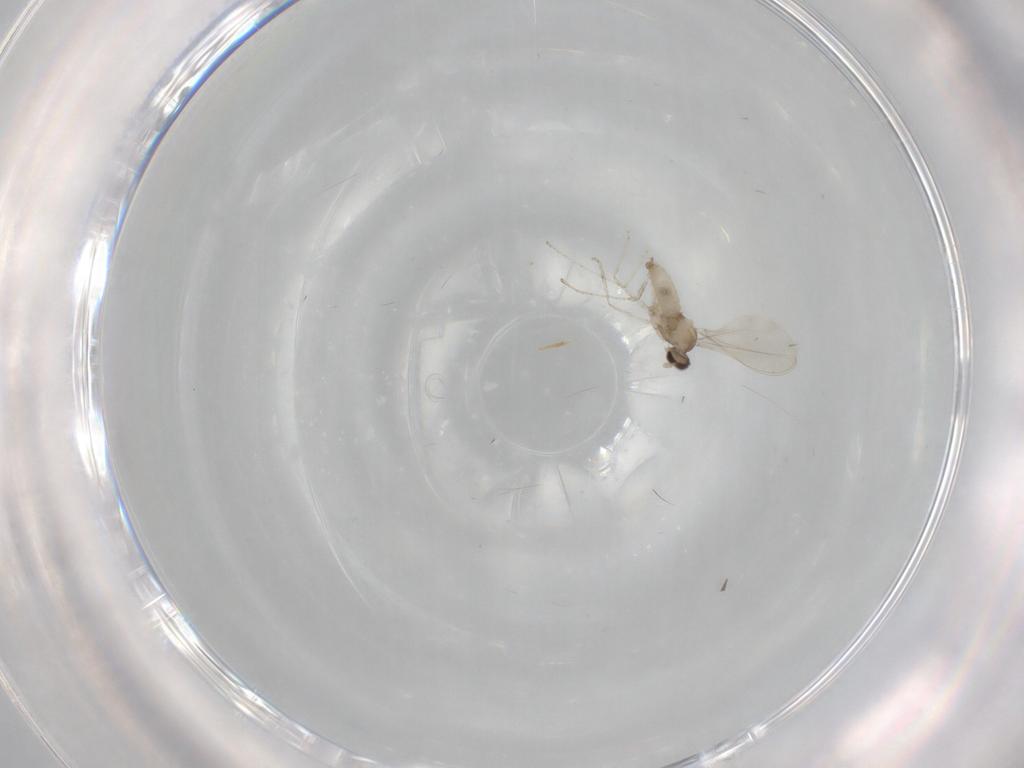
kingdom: Animalia
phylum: Arthropoda
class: Insecta
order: Diptera
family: Cecidomyiidae
